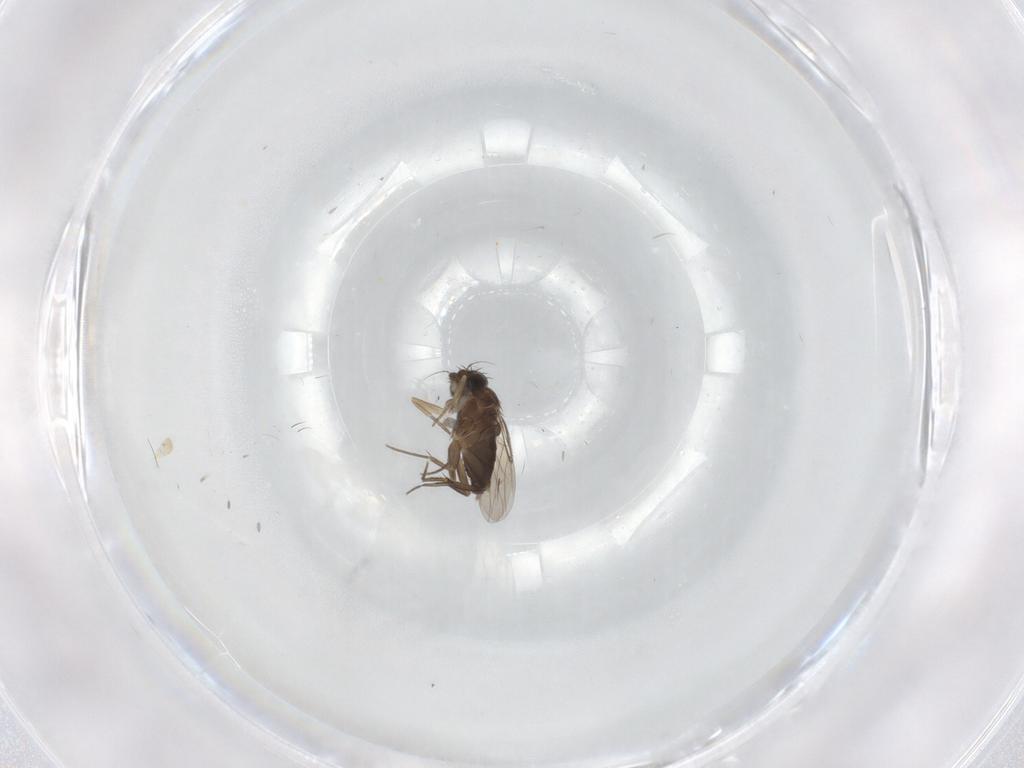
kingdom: Animalia
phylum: Arthropoda
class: Insecta
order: Diptera
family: Phoridae
